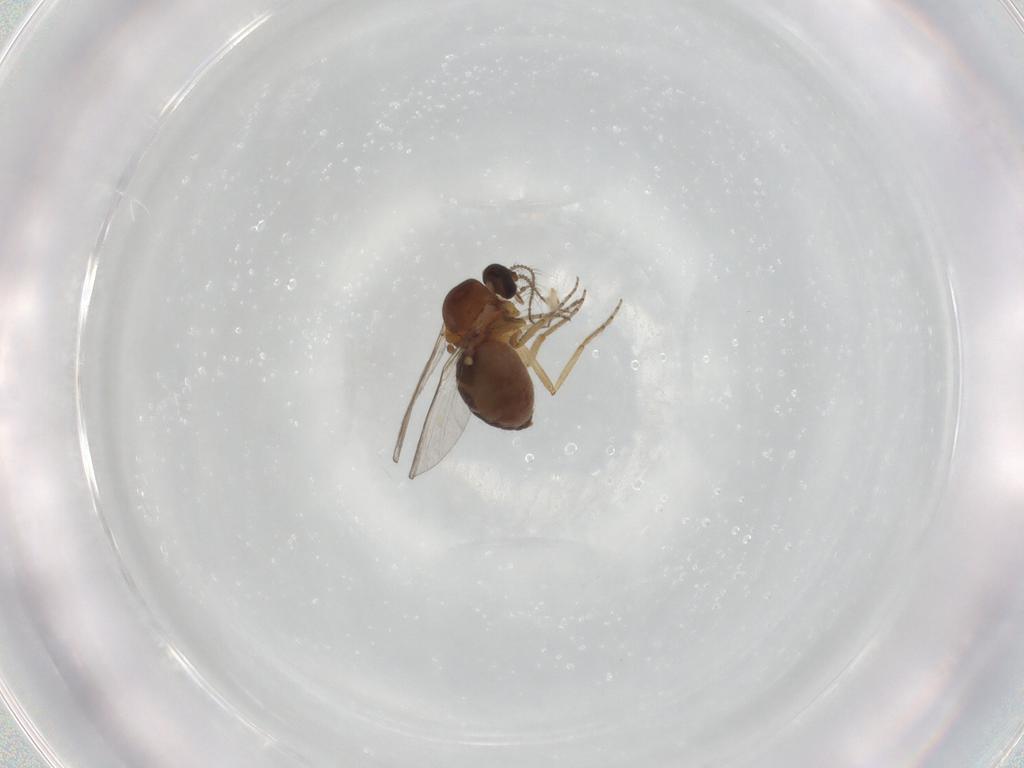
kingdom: Animalia
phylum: Arthropoda
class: Insecta
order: Diptera
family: Ceratopogonidae
